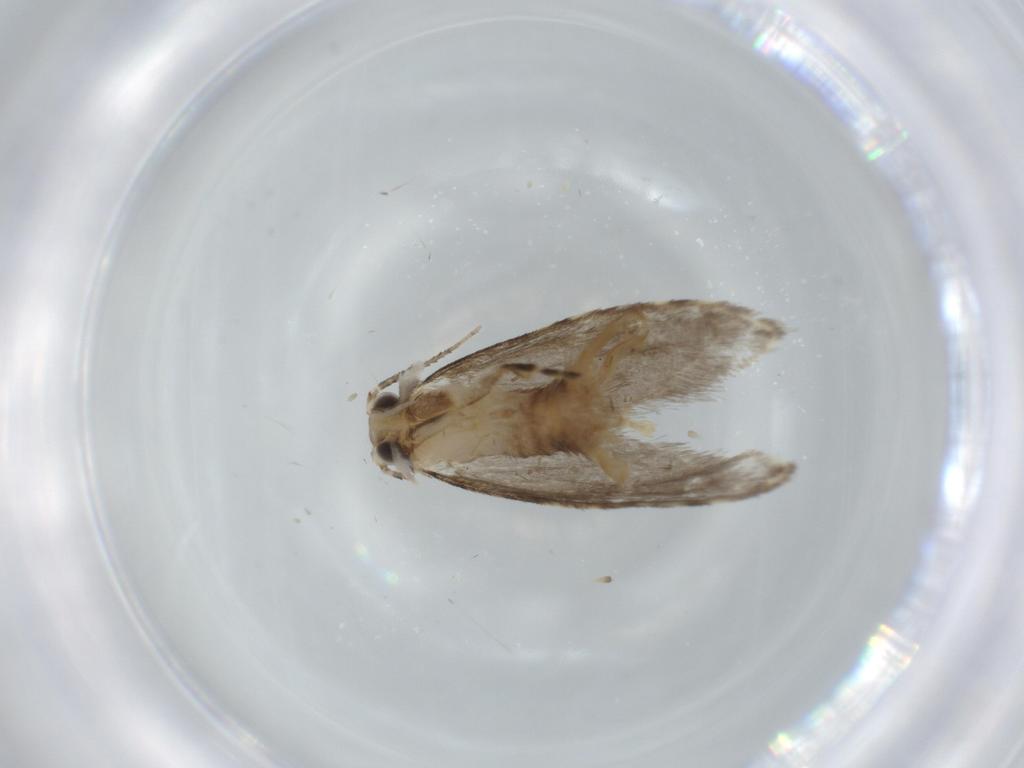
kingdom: Animalia
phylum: Arthropoda
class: Insecta
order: Lepidoptera
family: Tineidae
